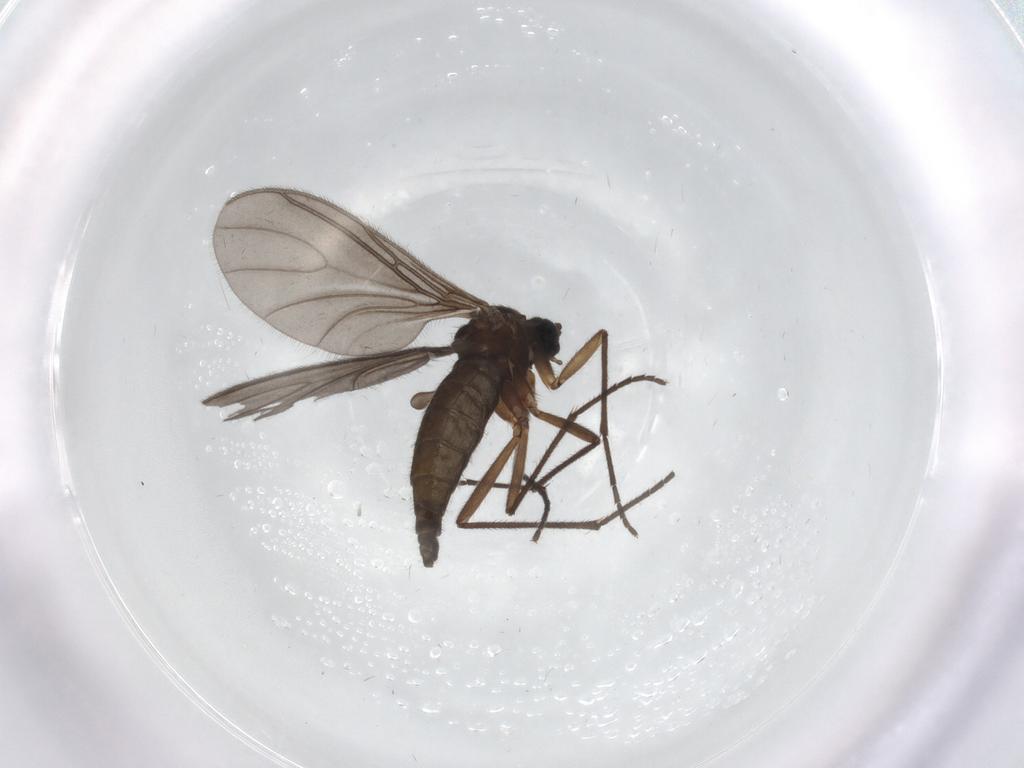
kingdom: Animalia
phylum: Arthropoda
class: Insecta
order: Diptera
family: Sciaridae
